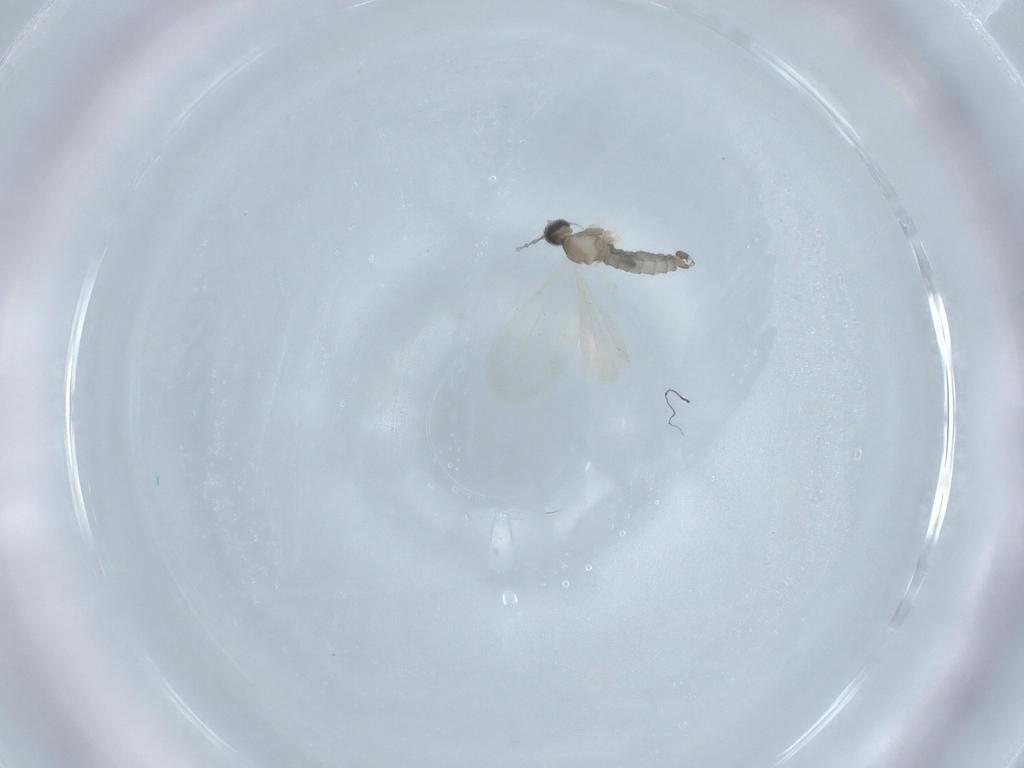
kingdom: Animalia
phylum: Arthropoda
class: Insecta
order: Diptera
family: Cecidomyiidae
